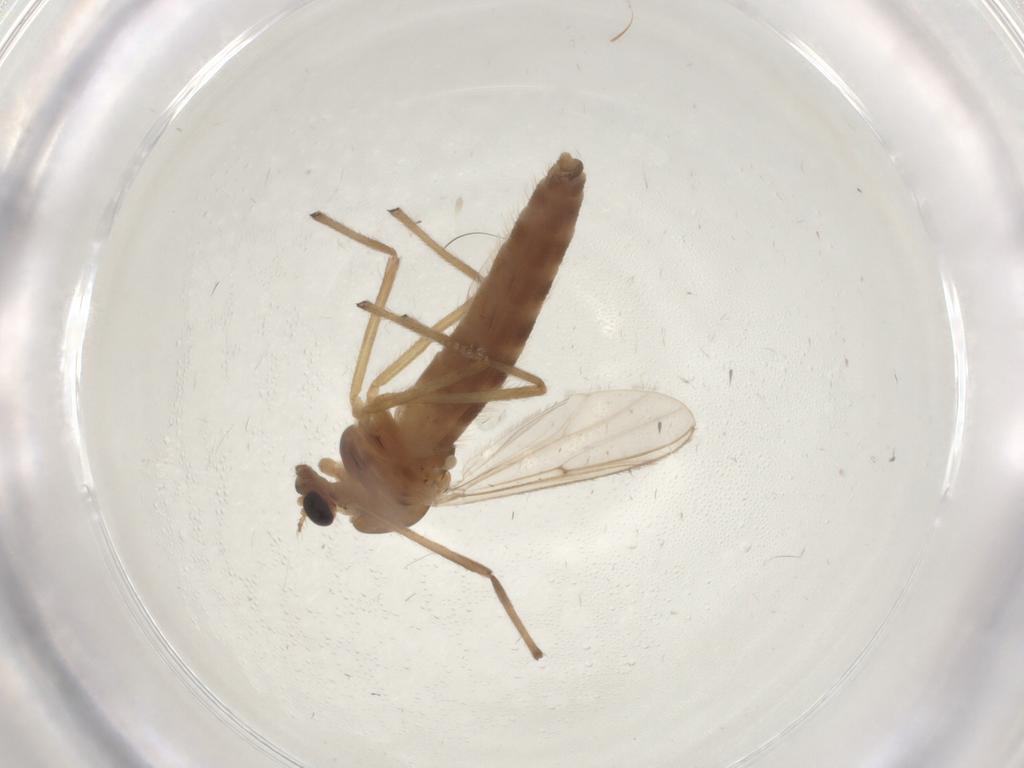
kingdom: Animalia
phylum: Arthropoda
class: Insecta
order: Diptera
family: Chironomidae
